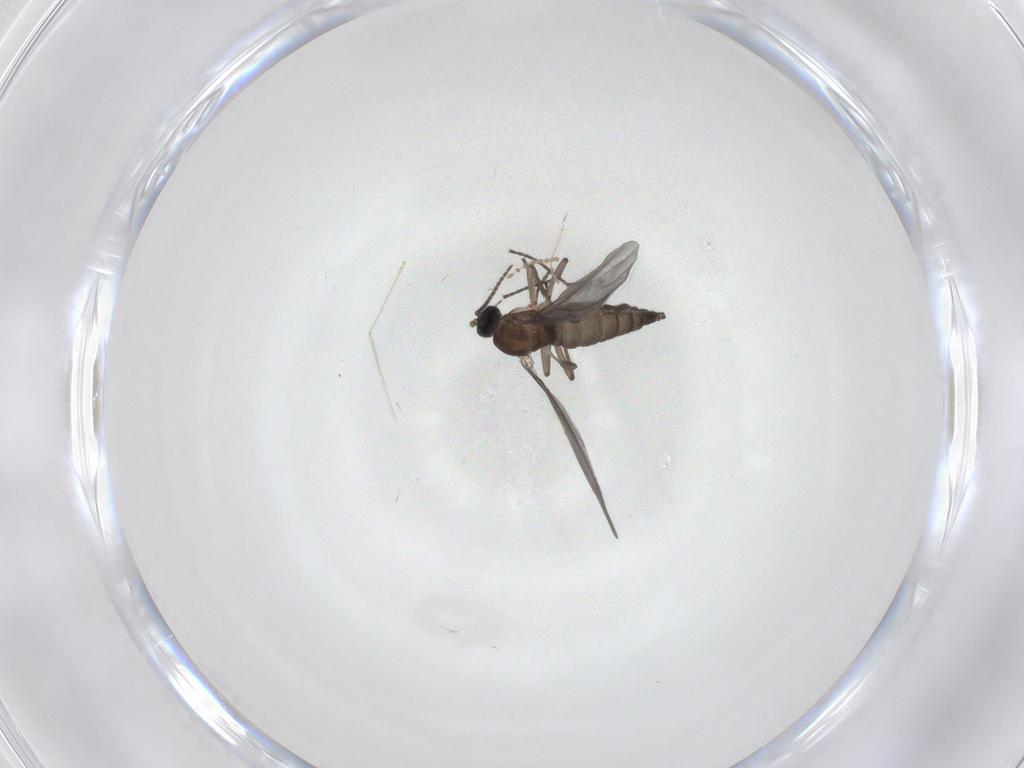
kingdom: Animalia
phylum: Arthropoda
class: Insecta
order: Diptera
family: Sciaridae
